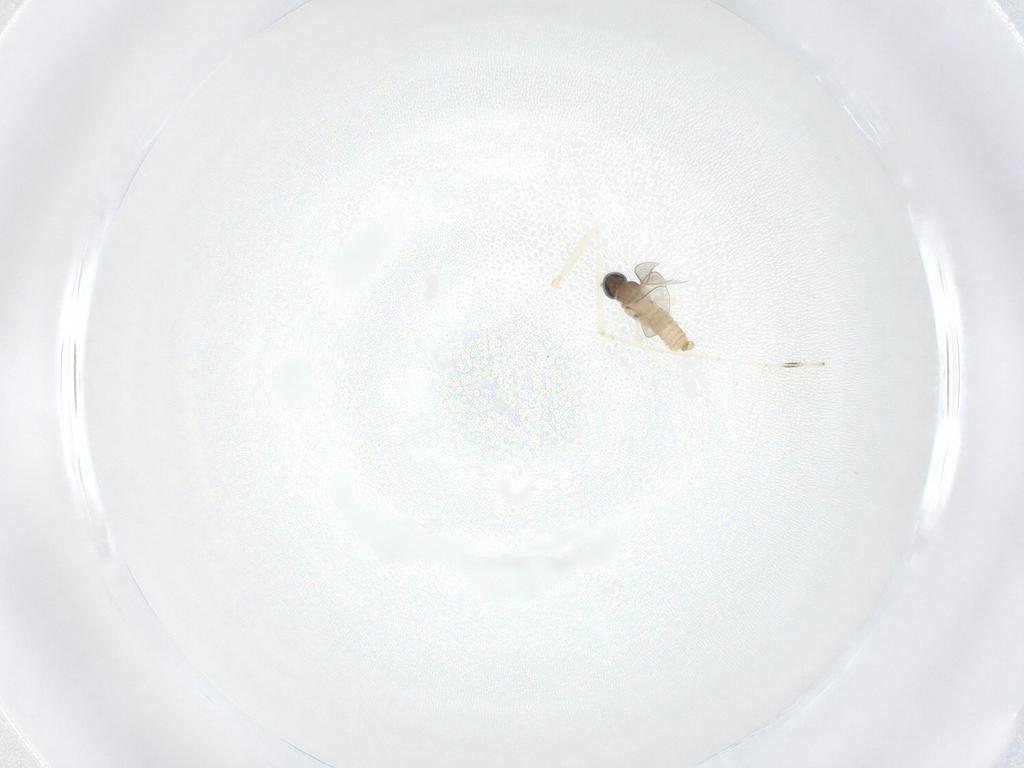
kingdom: Animalia
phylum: Arthropoda
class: Insecta
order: Diptera
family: Cecidomyiidae
